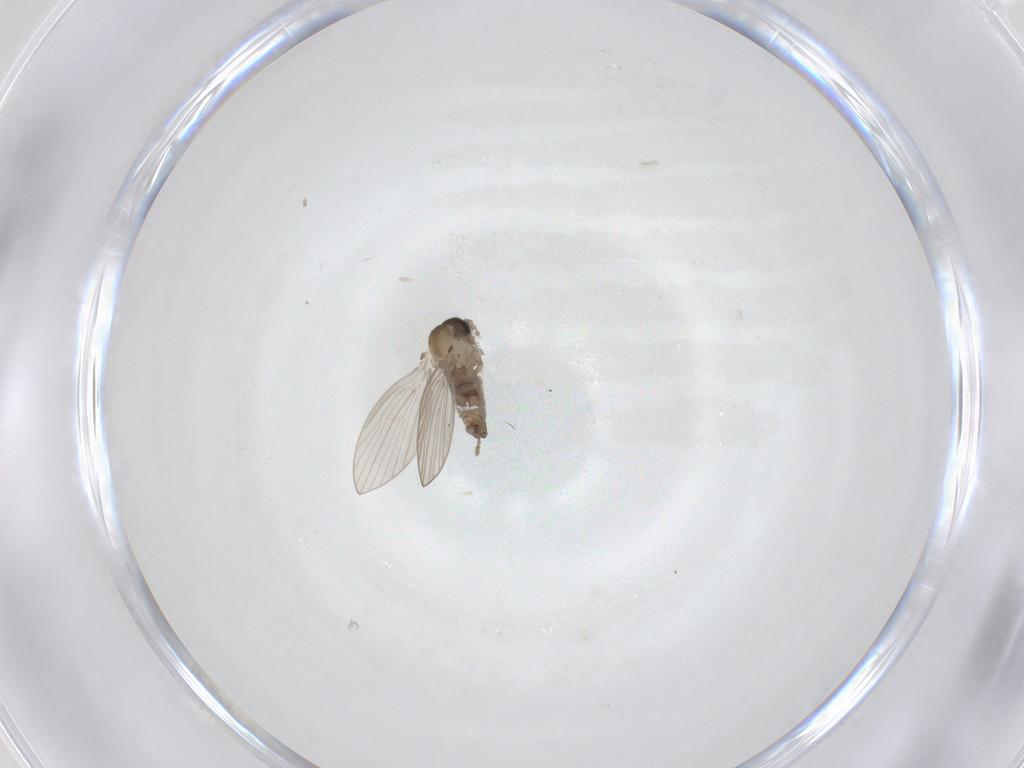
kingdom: Animalia
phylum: Arthropoda
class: Insecta
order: Diptera
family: Psychodidae
